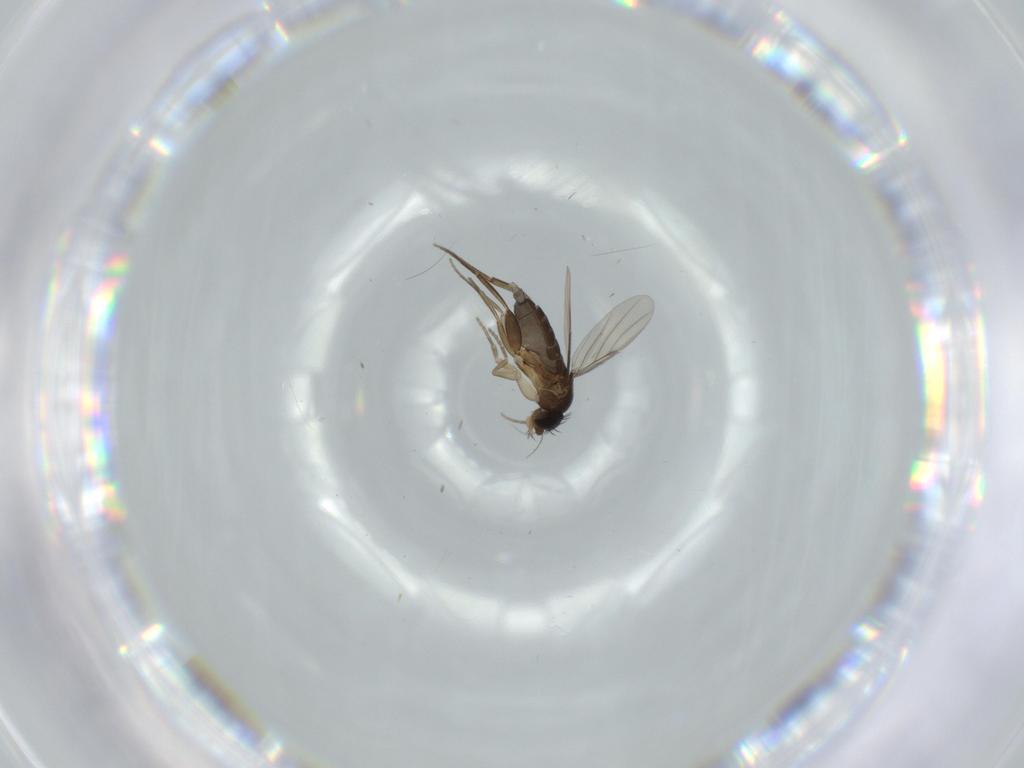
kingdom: Animalia
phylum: Arthropoda
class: Insecta
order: Diptera
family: Phoridae
